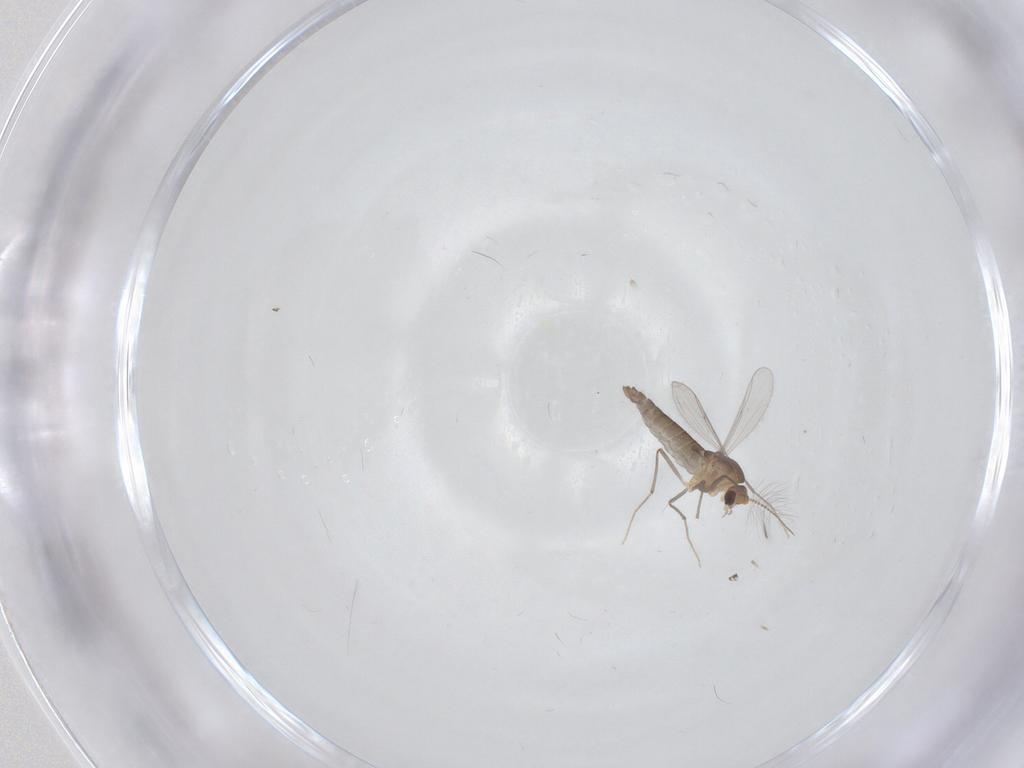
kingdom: Animalia
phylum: Arthropoda
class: Insecta
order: Diptera
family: Chironomidae
